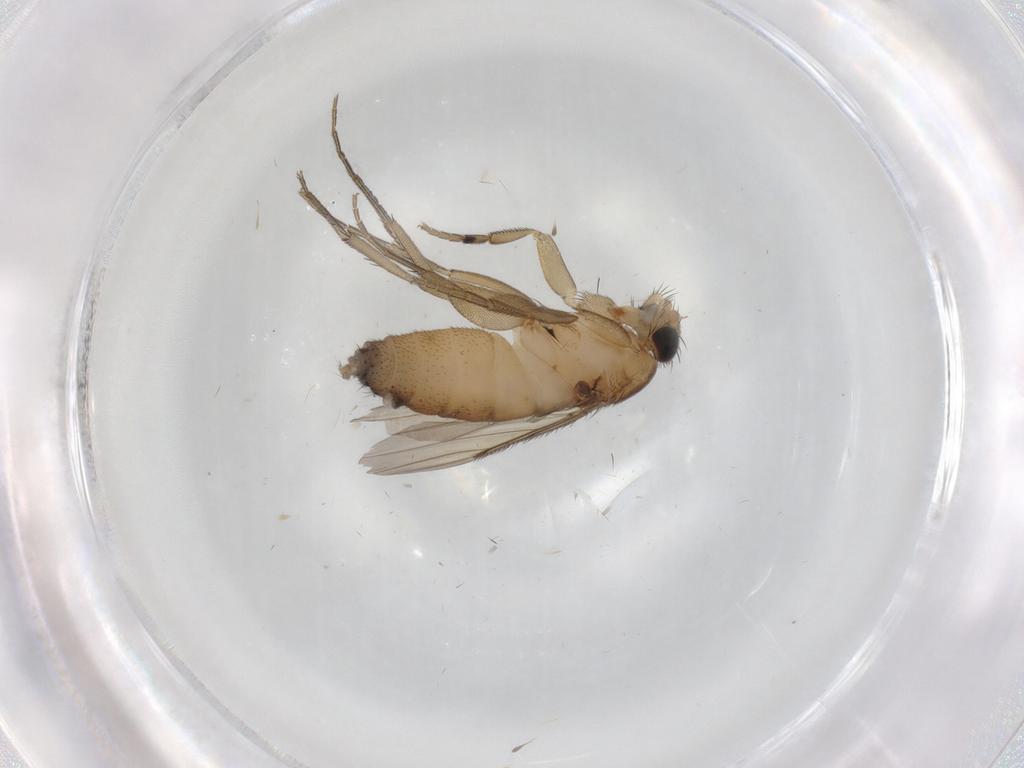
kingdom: Animalia
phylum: Arthropoda
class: Insecta
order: Diptera
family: Phoridae
